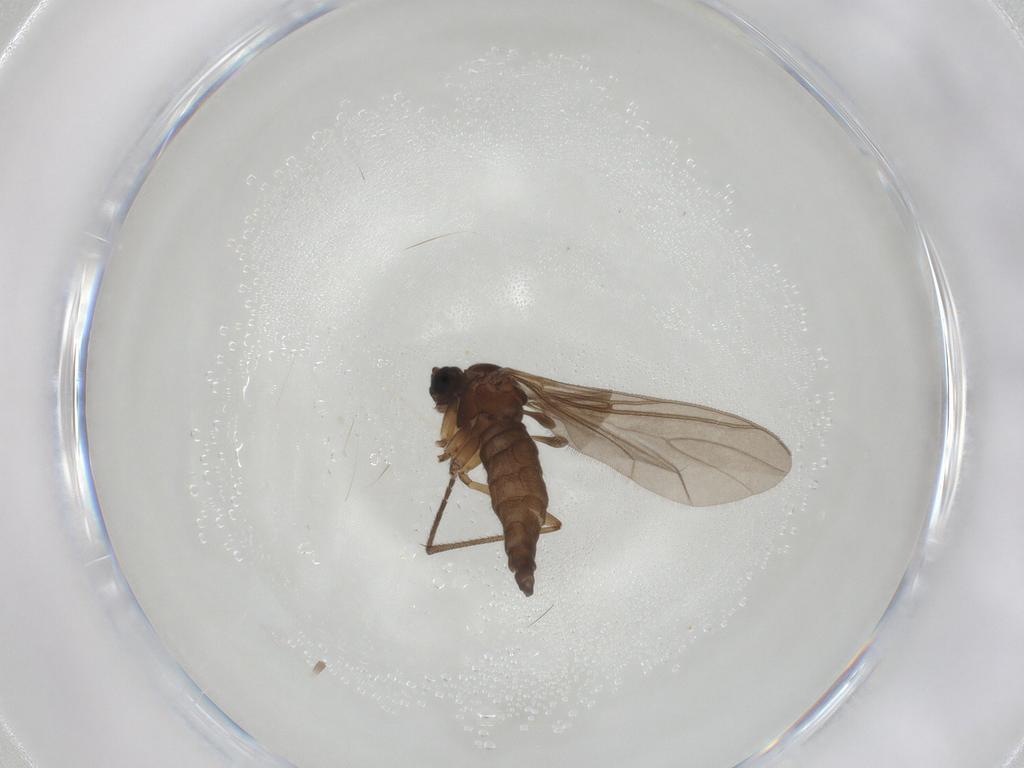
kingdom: Animalia
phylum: Arthropoda
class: Insecta
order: Diptera
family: Sciaridae
